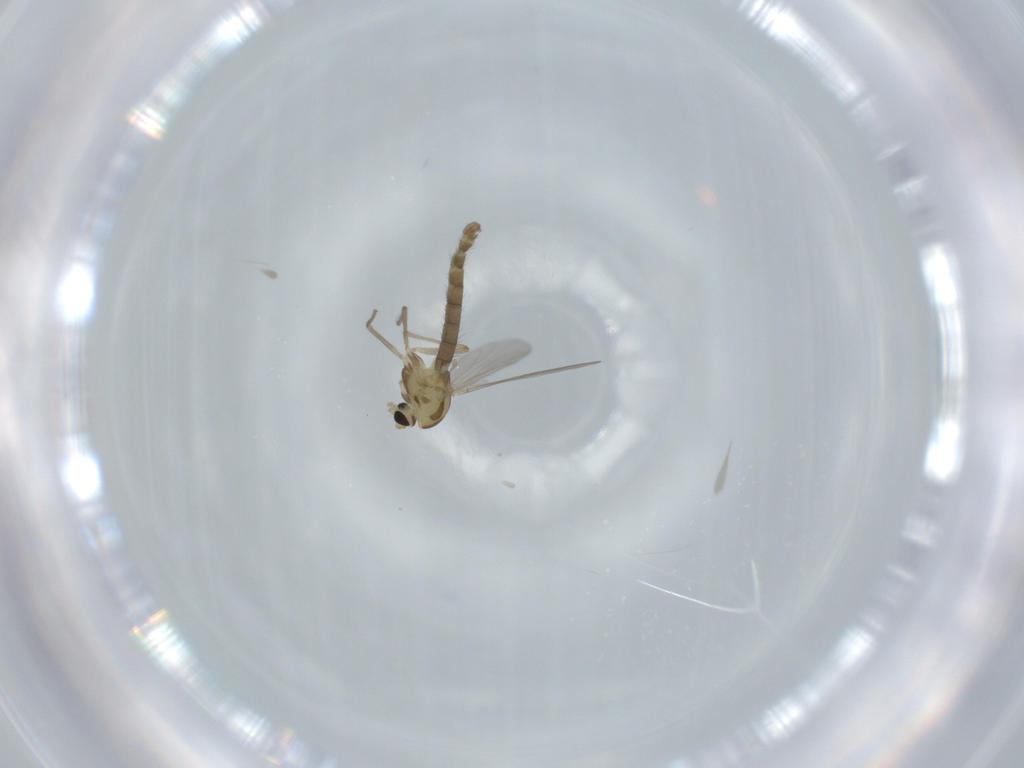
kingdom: Animalia
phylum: Arthropoda
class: Insecta
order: Diptera
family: Chironomidae
